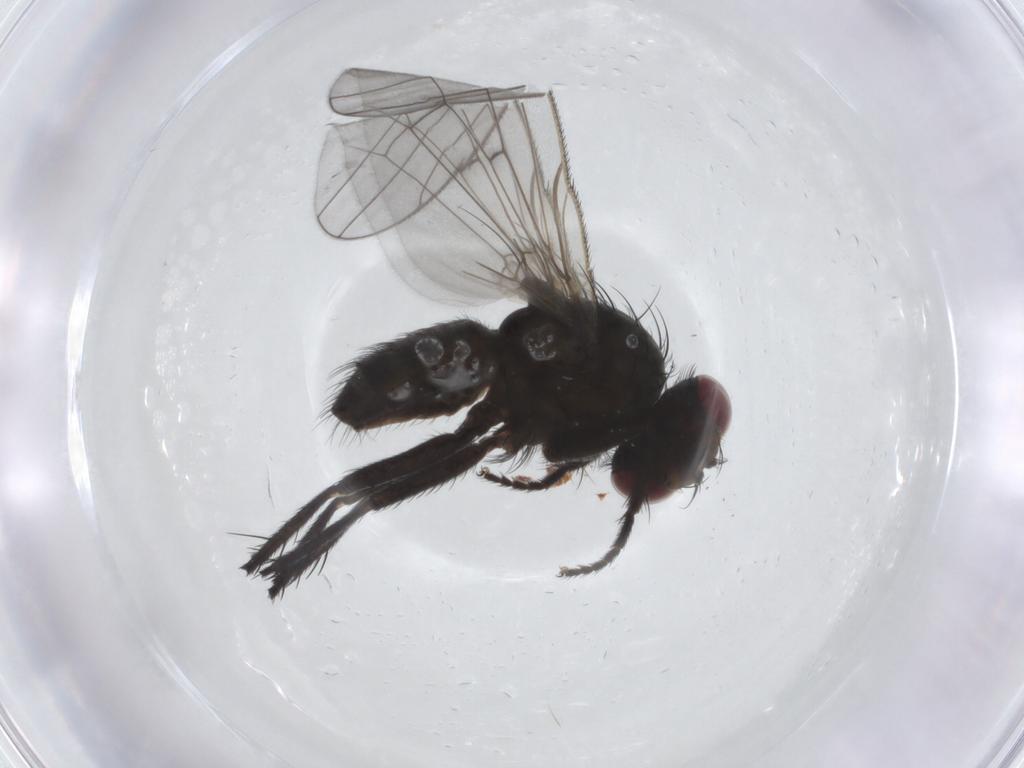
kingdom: Animalia
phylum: Arthropoda
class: Insecta
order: Diptera
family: Muscidae
